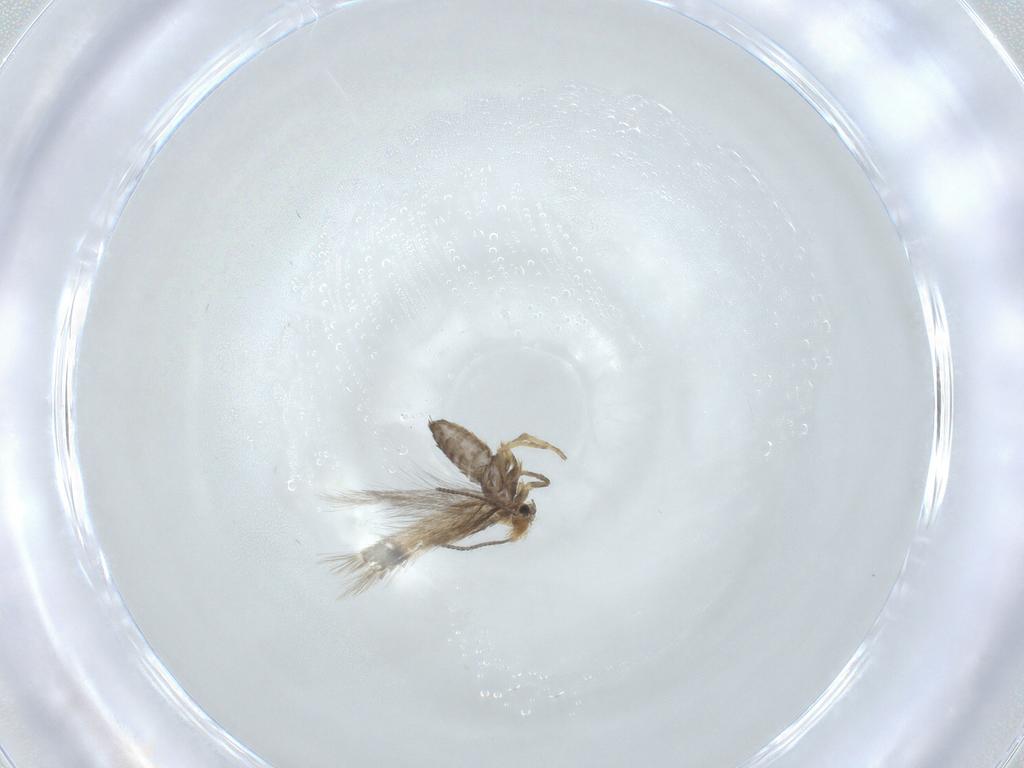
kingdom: Animalia
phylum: Arthropoda
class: Insecta
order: Lepidoptera
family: Nepticulidae
